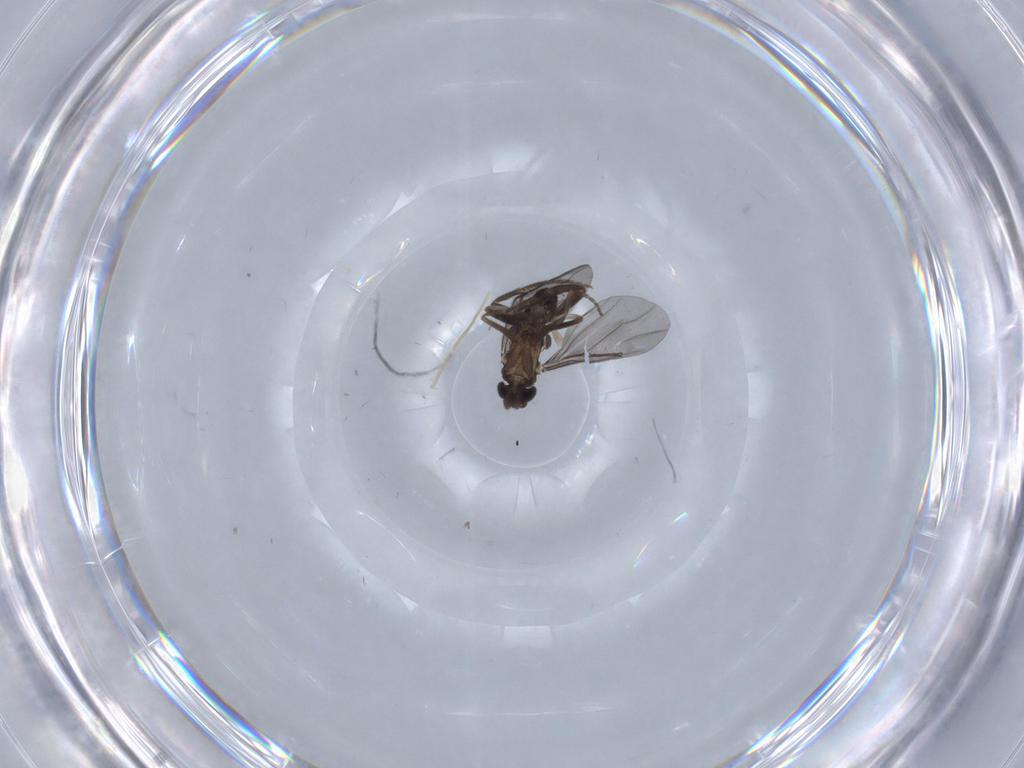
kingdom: Animalia
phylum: Arthropoda
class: Insecta
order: Diptera
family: Phoridae
